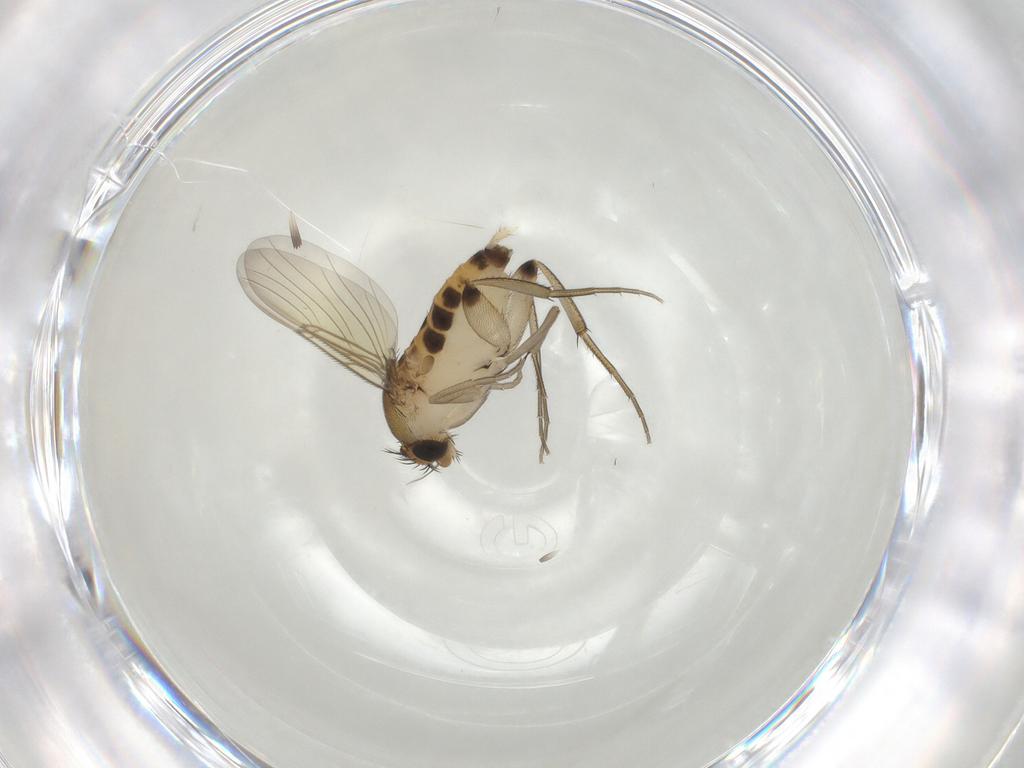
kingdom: Animalia
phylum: Arthropoda
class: Insecta
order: Diptera
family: Phoridae
